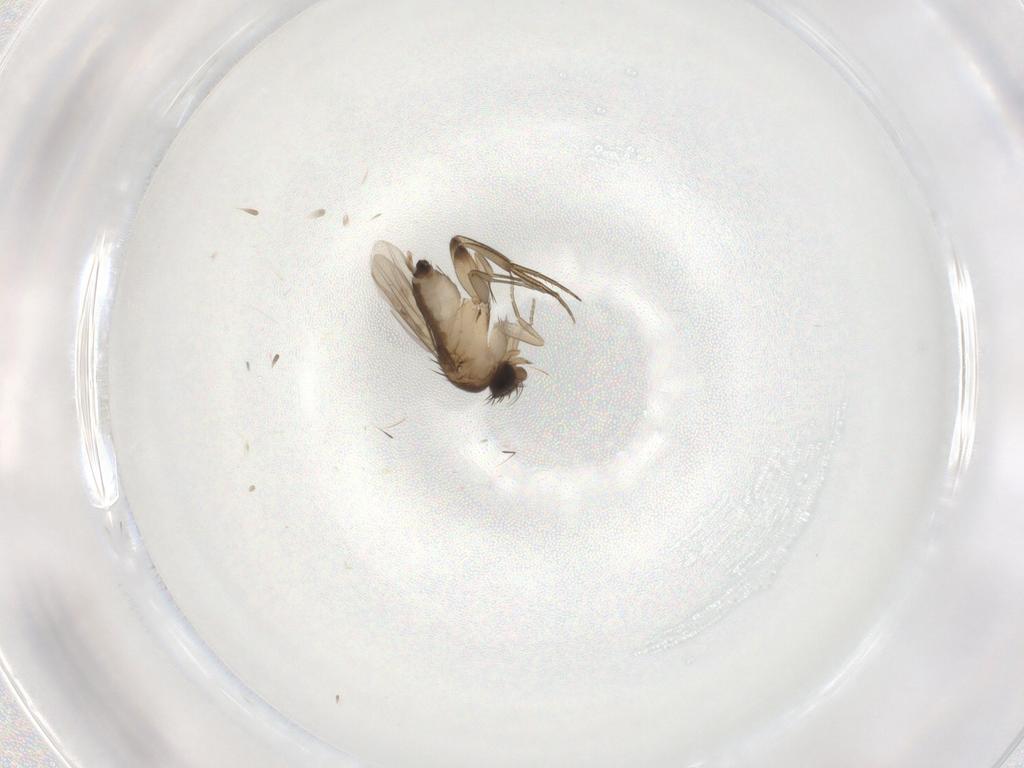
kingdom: Animalia
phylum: Arthropoda
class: Insecta
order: Diptera
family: Phoridae
